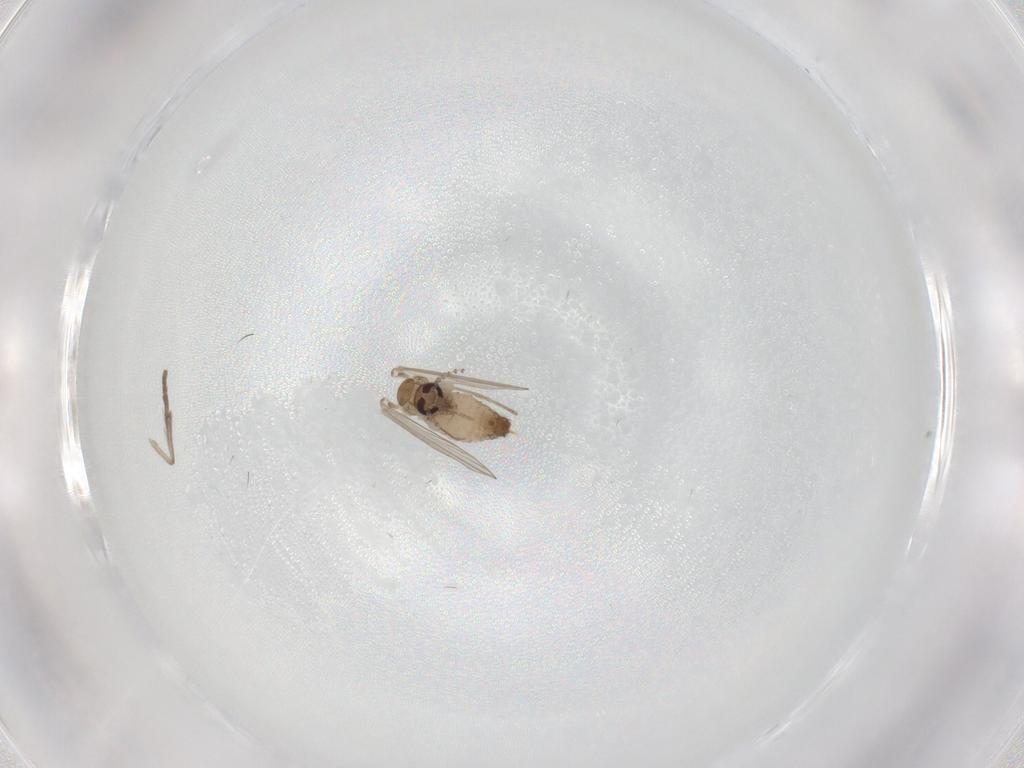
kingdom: Animalia
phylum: Arthropoda
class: Insecta
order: Diptera
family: Psychodidae
